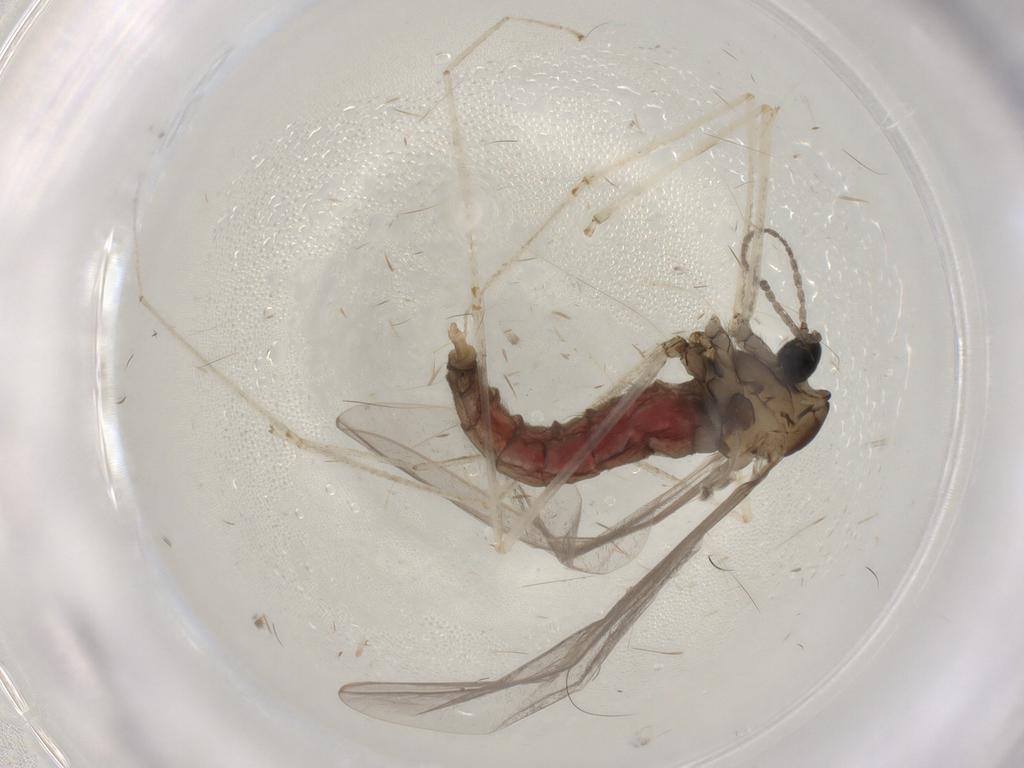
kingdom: Animalia
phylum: Arthropoda
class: Insecta
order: Diptera
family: Cecidomyiidae
